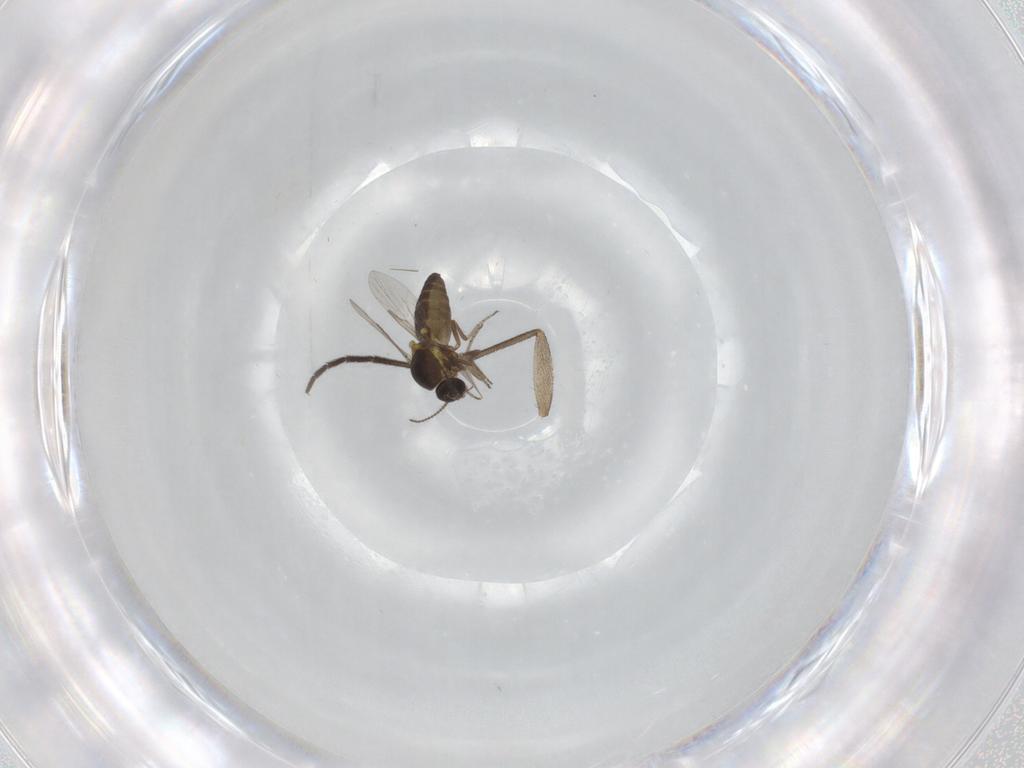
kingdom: Animalia
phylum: Arthropoda
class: Insecta
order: Diptera
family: Ceratopogonidae
